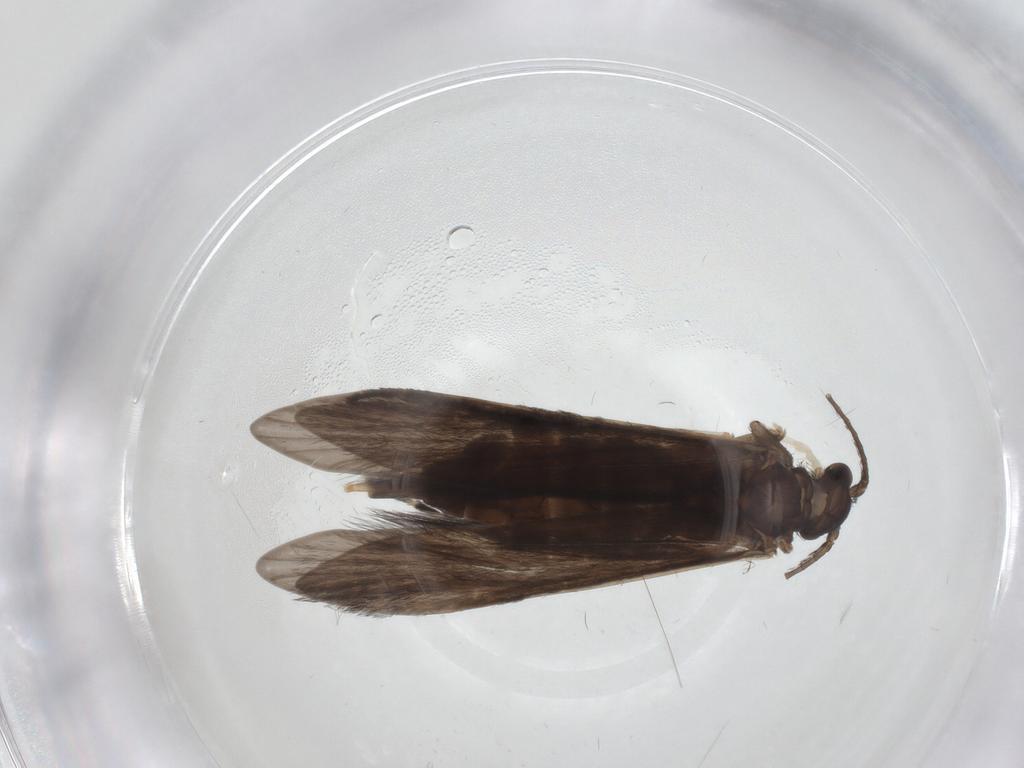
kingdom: Animalia
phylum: Arthropoda
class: Insecta
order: Trichoptera
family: Xiphocentronidae
